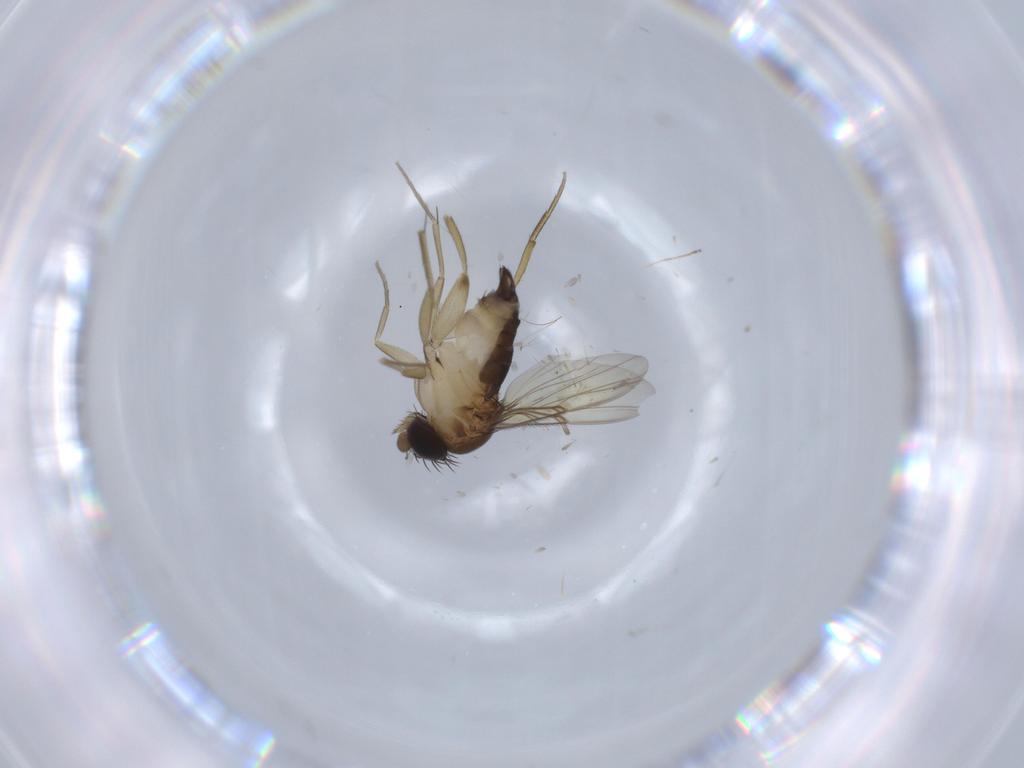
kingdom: Animalia
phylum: Arthropoda
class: Insecta
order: Diptera
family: Phoridae
